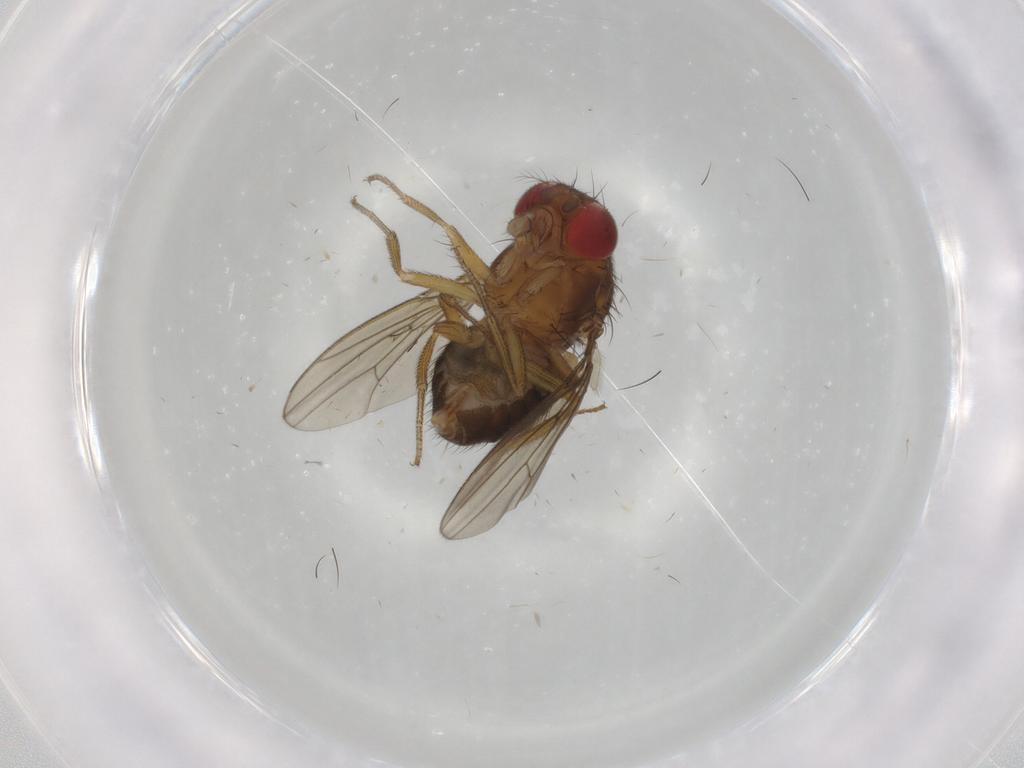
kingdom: Animalia
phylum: Arthropoda
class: Insecta
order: Diptera
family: Drosophilidae
